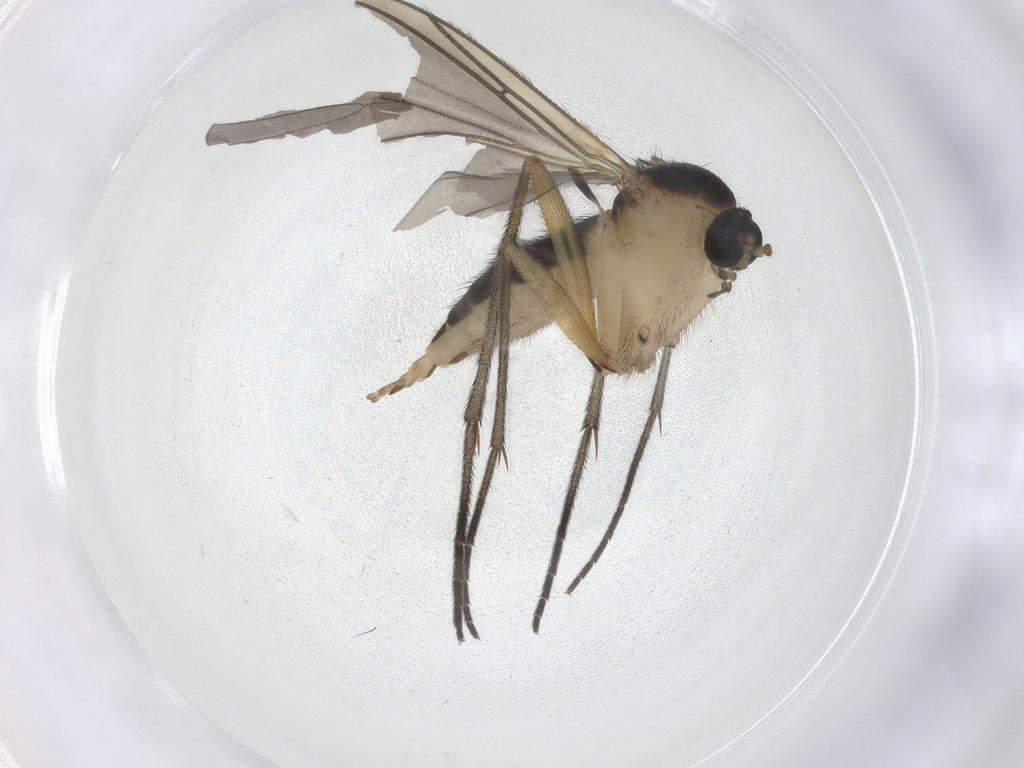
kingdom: Animalia
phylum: Arthropoda
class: Insecta
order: Diptera
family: Sciaridae
